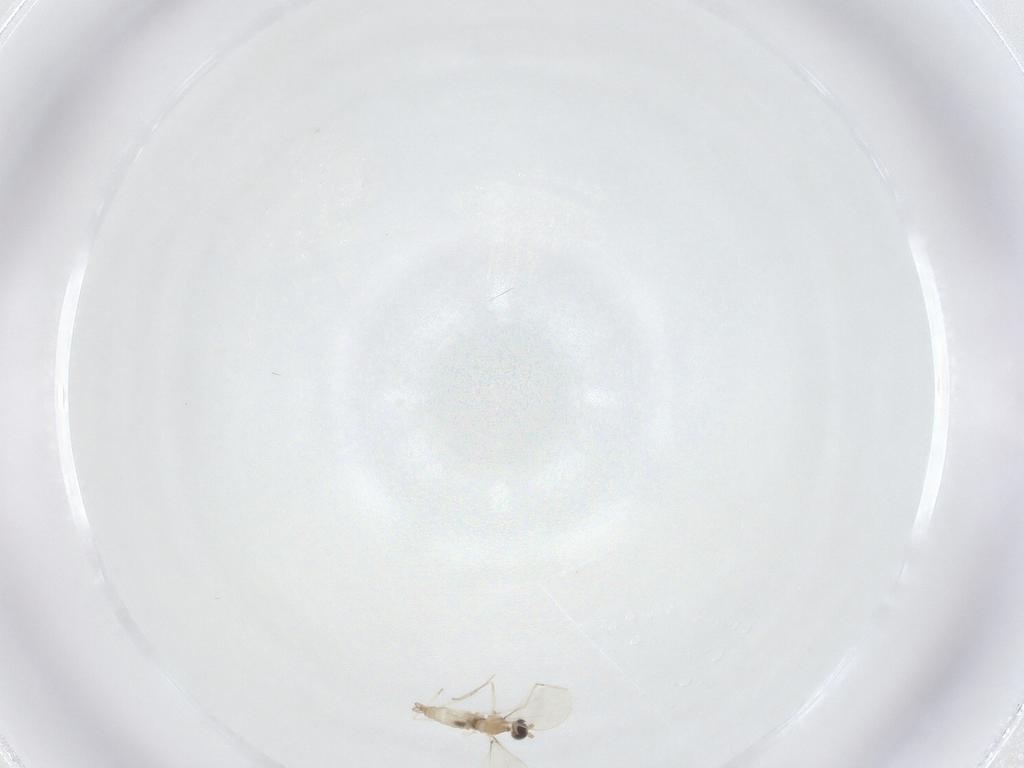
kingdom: Animalia
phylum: Arthropoda
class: Insecta
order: Diptera
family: Cecidomyiidae
